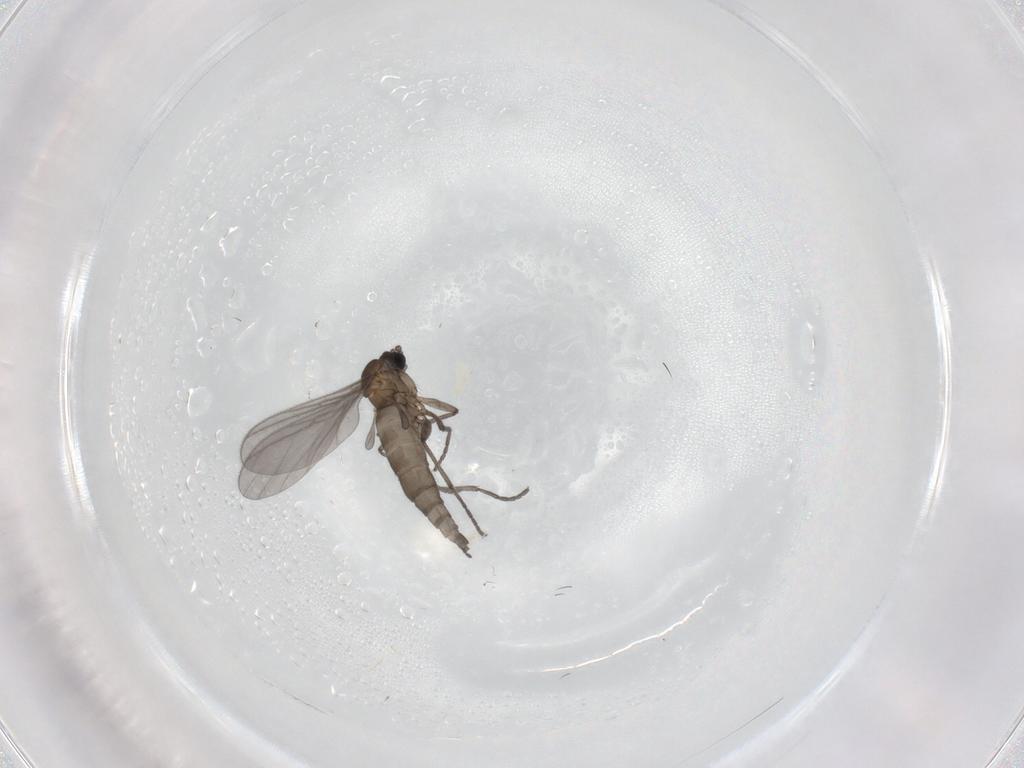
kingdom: Animalia
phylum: Arthropoda
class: Insecta
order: Diptera
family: Sciaridae
